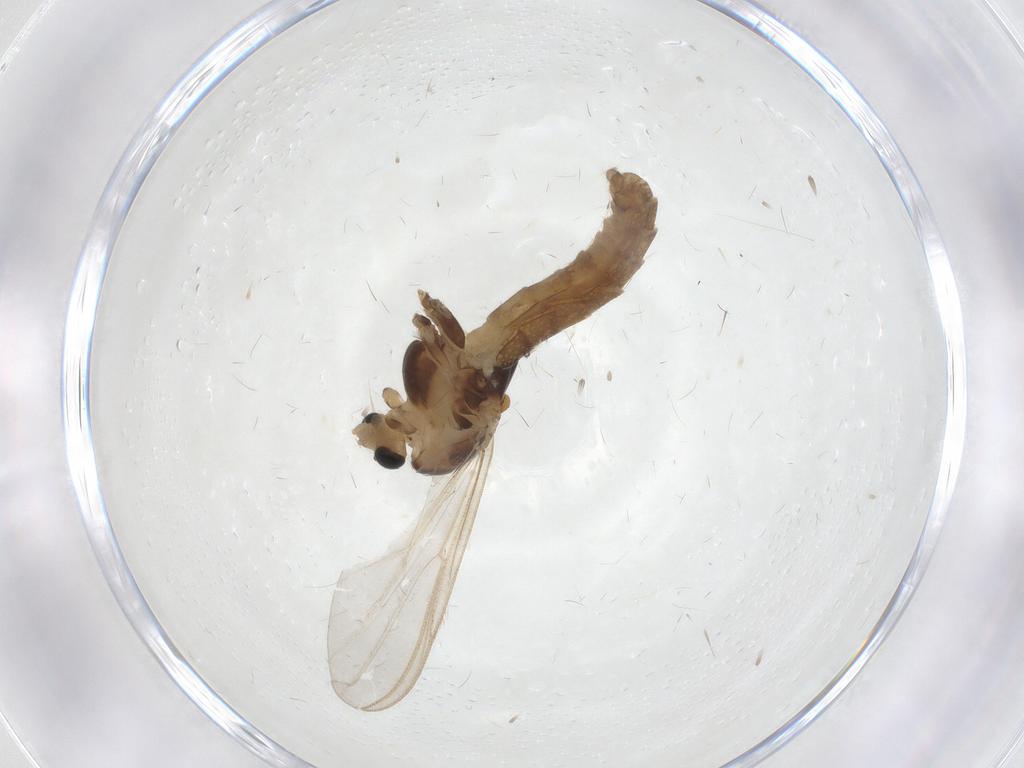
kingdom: Animalia
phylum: Arthropoda
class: Insecta
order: Diptera
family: Chironomidae
